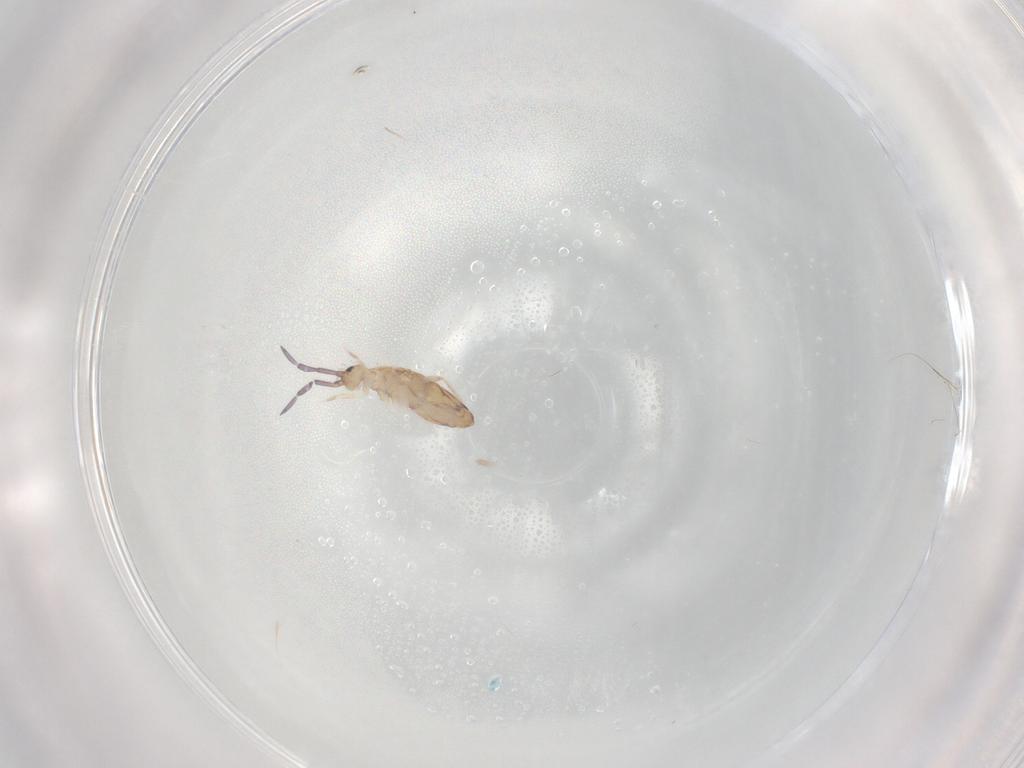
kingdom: Animalia
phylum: Arthropoda
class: Collembola
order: Entomobryomorpha
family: Entomobryidae
